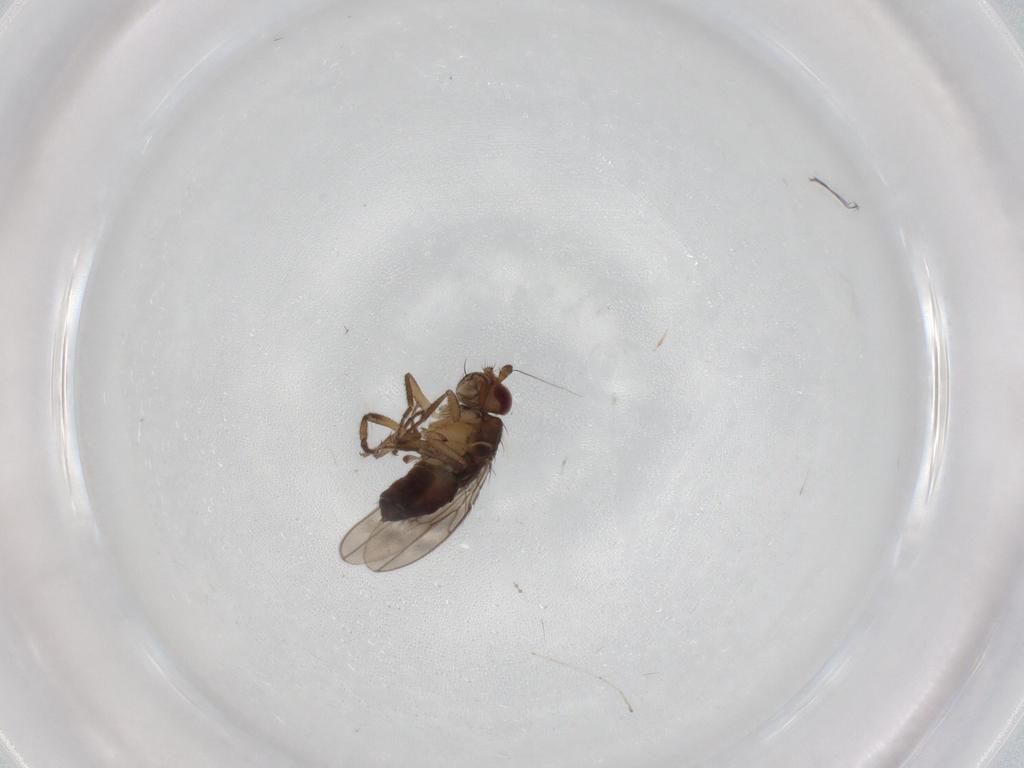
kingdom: Animalia
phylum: Arthropoda
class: Insecta
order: Diptera
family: Sphaeroceridae
